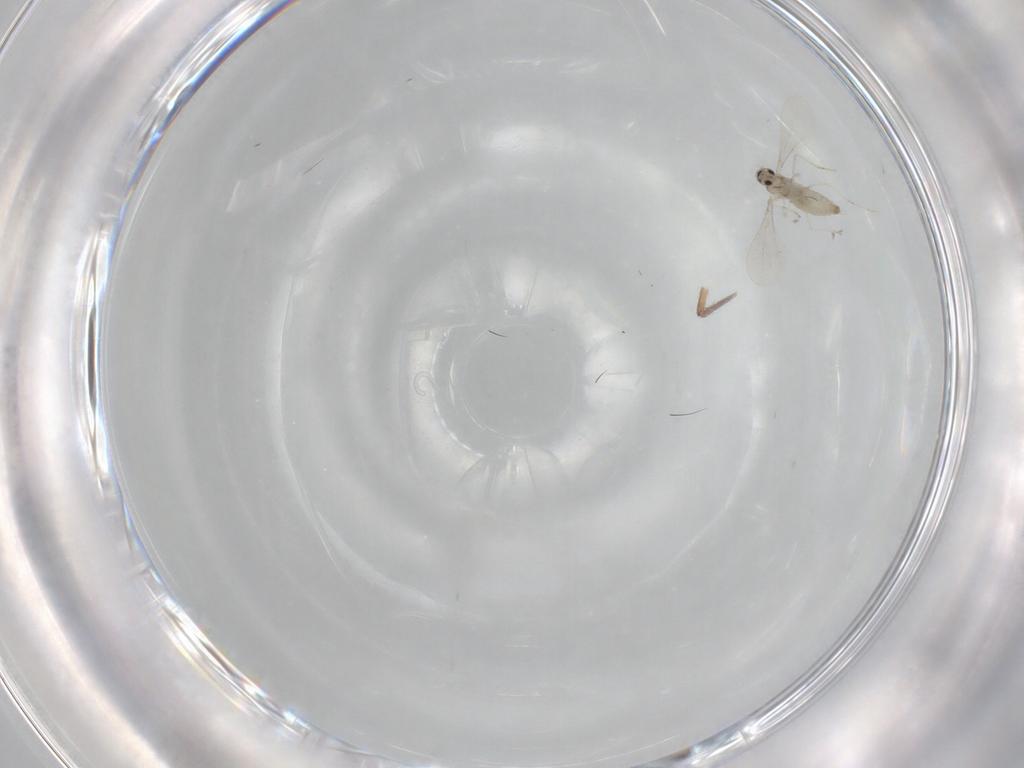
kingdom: Animalia
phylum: Arthropoda
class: Insecta
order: Diptera
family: Cecidomyiidae
